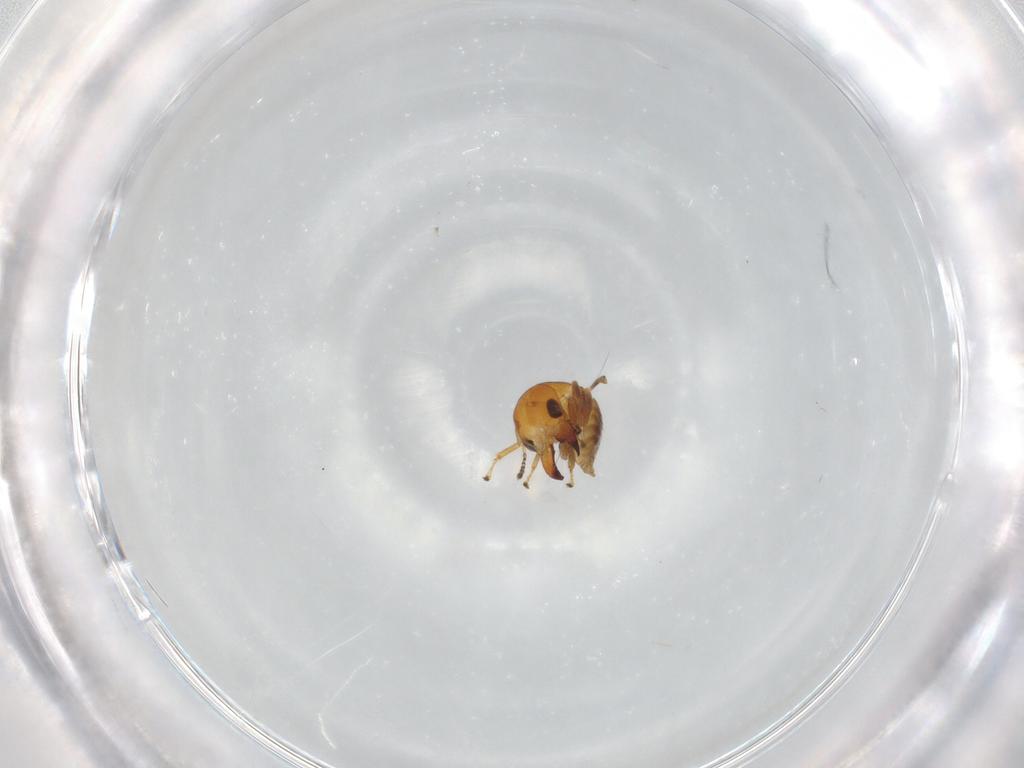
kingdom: Animalia
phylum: Arthropoda
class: Insecta
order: Hymenoptera
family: Pteromalidae
